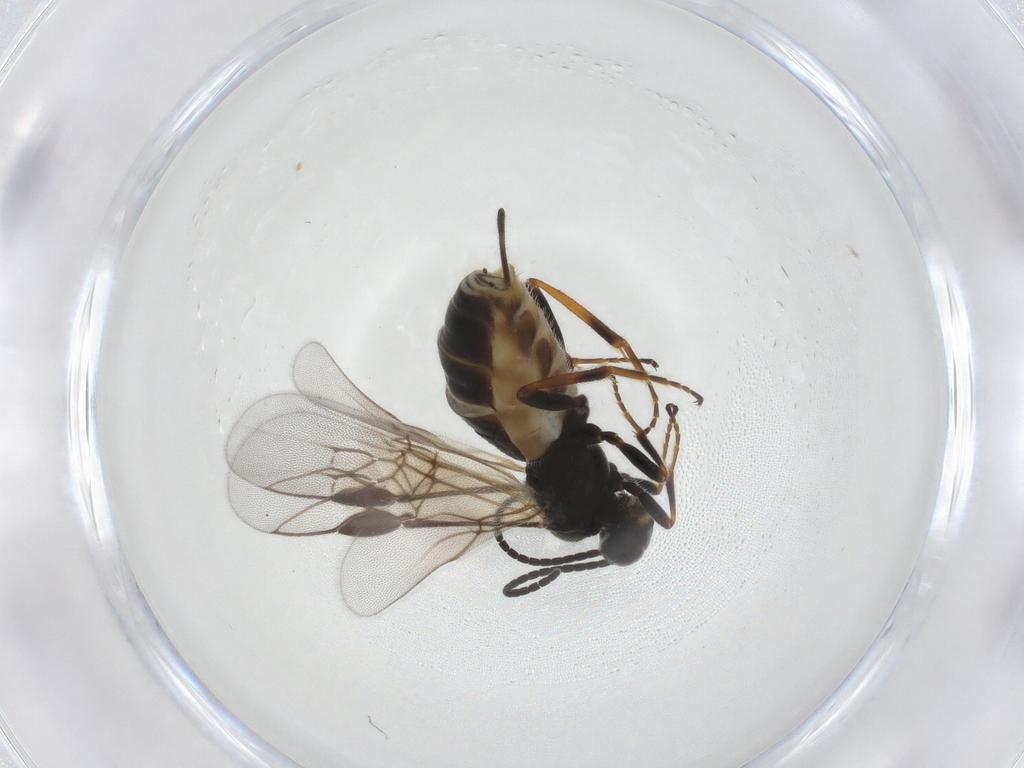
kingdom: Animalia
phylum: Arthropoda
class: Insecta
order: Hymenoptera
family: Braconidae
